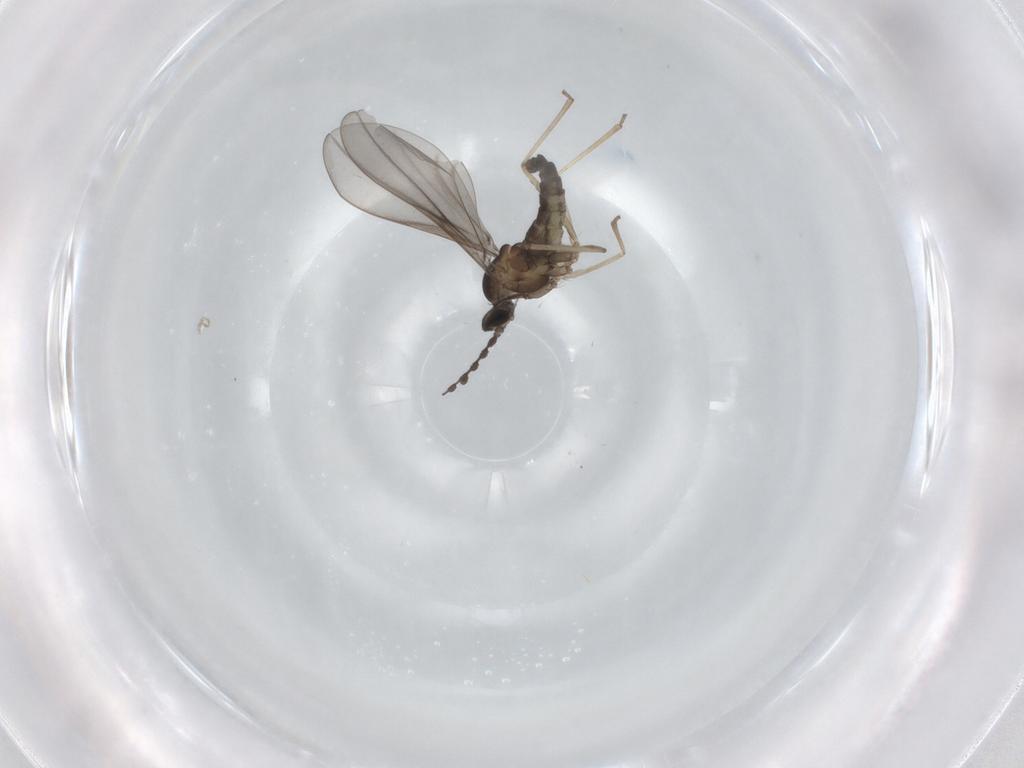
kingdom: Animalia
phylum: Arthropoda
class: Insecta
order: Diptera
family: Cecidomyiidae
